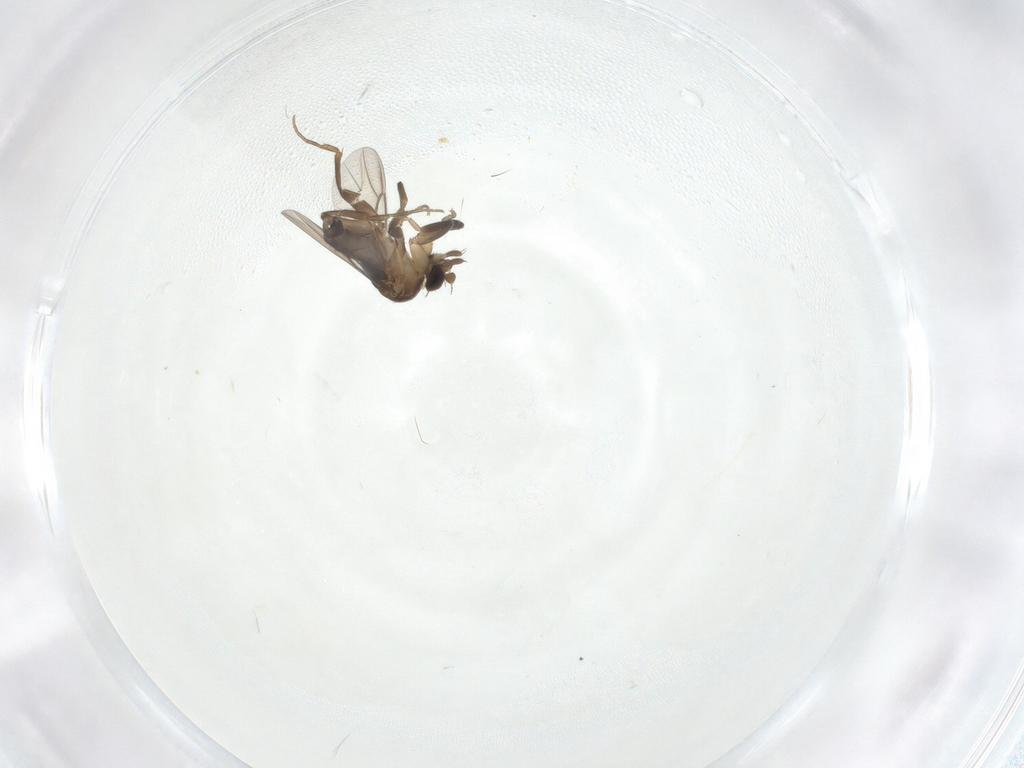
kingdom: Animalia
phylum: Arthropoda
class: Insecta
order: Diptera
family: Phoridae
